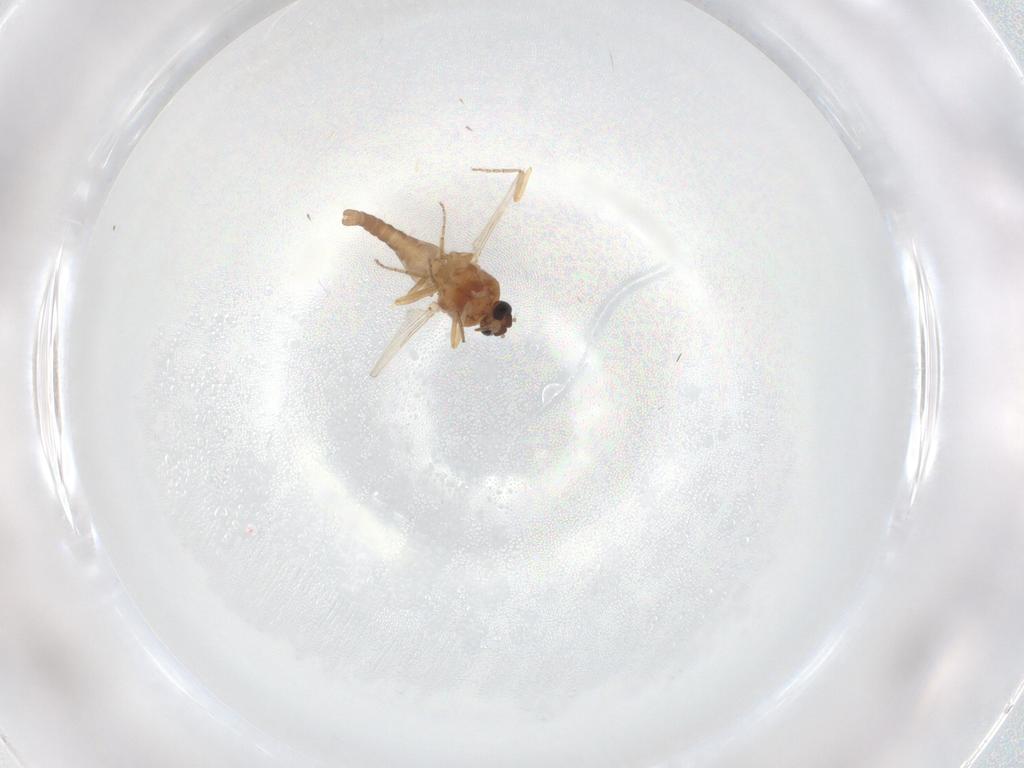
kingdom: Animalia
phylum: Arthropoda
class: Insecta
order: Diptera
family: Ceratopogonidae
